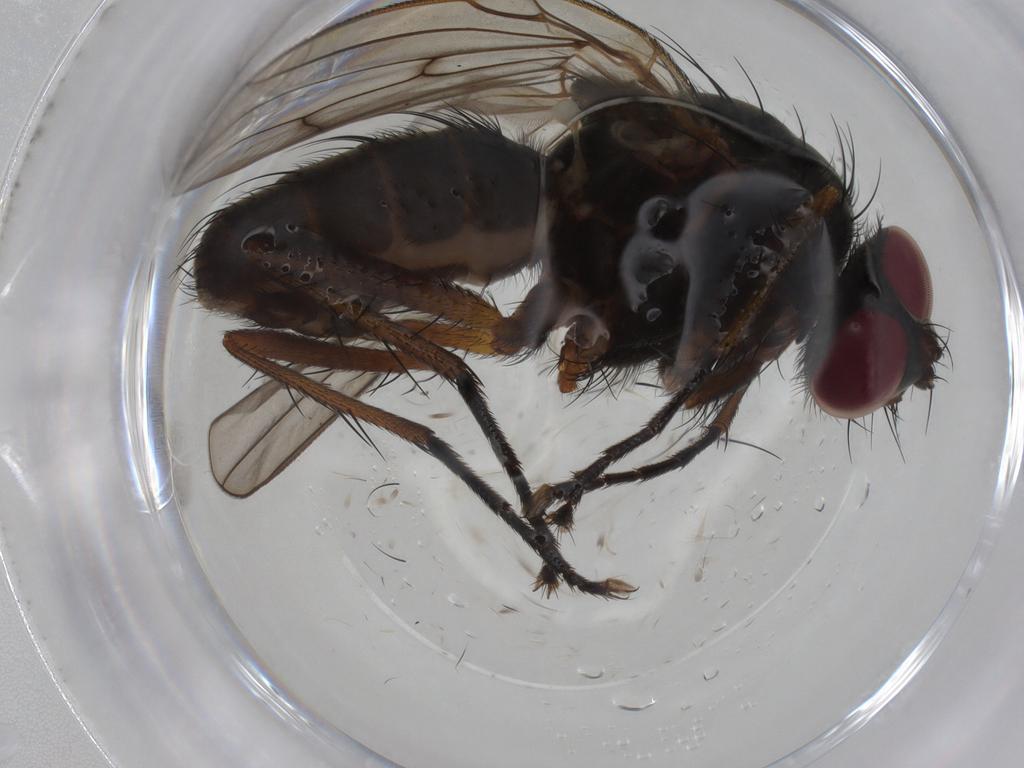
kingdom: Animalia
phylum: Arthropoda
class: Insecta
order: Diptera
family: Anthomyiidae
